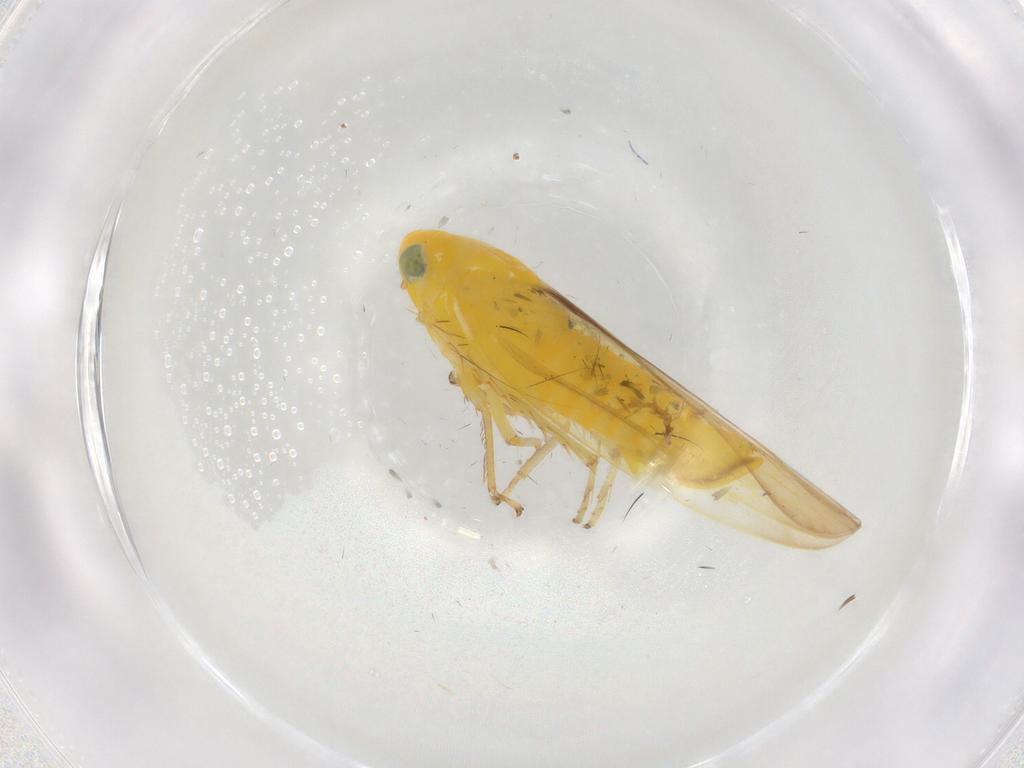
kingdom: Animalia
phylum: Arthropoda
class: Insecta
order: Hemiptera
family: Cicadellidae
